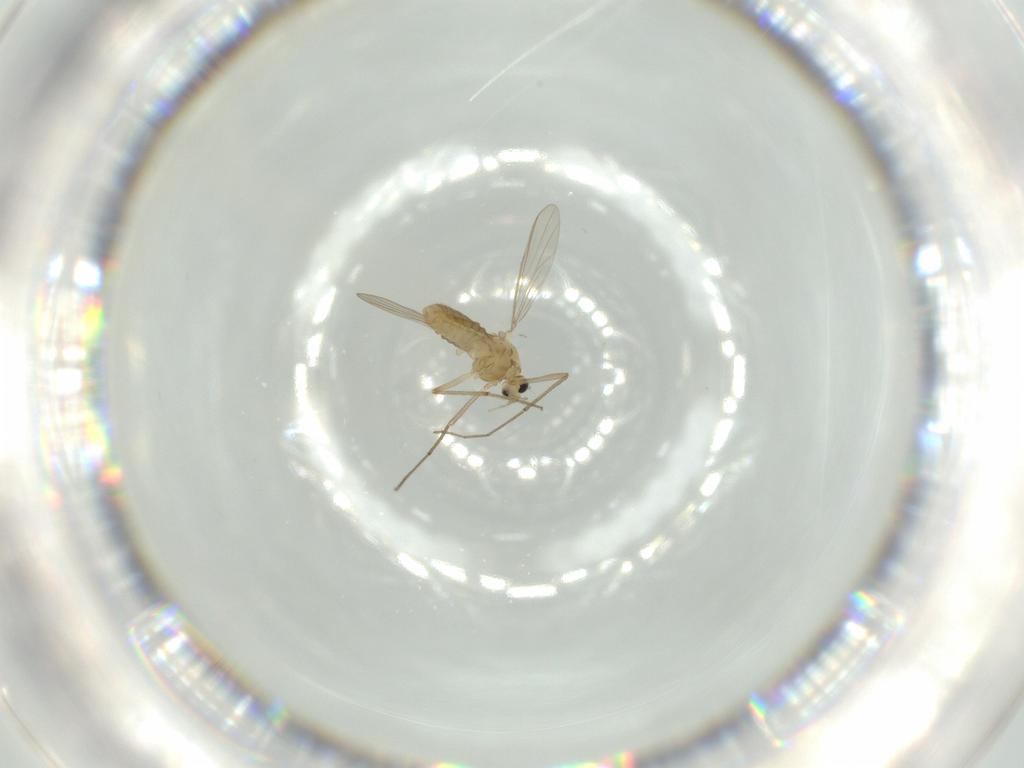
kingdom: Animalia
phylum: Arthropoda
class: Insecta
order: Diptera
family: Chironomidae
